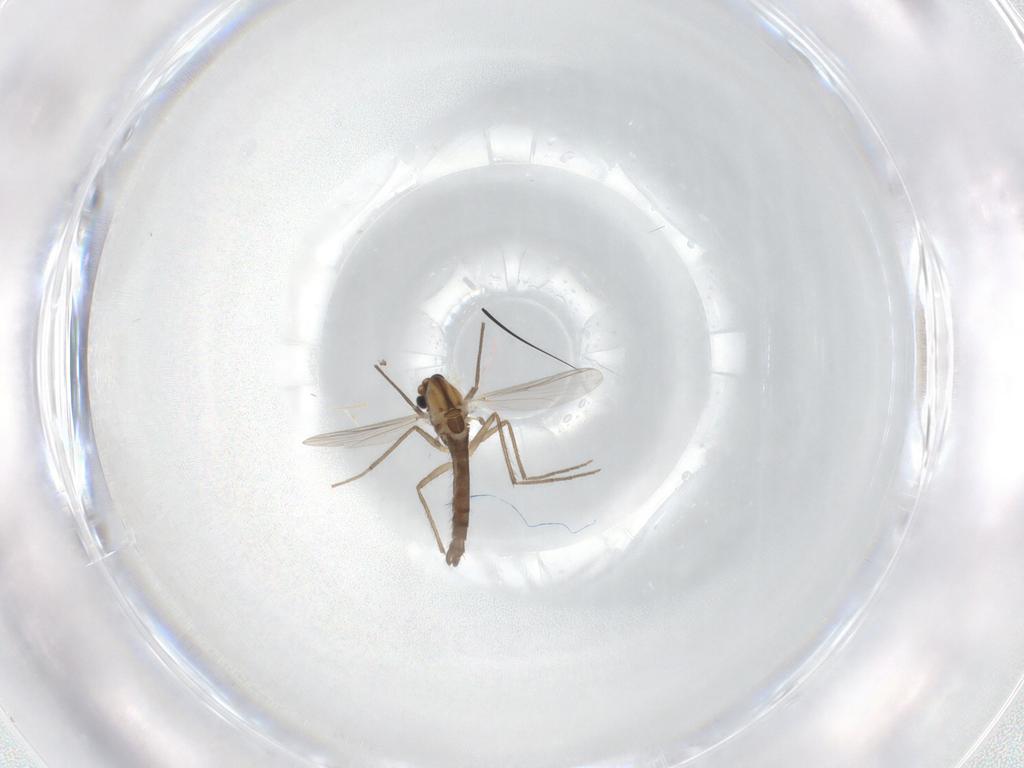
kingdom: Animalia
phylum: Arthropoda
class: Insecta
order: Diptera
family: Chironomidae
